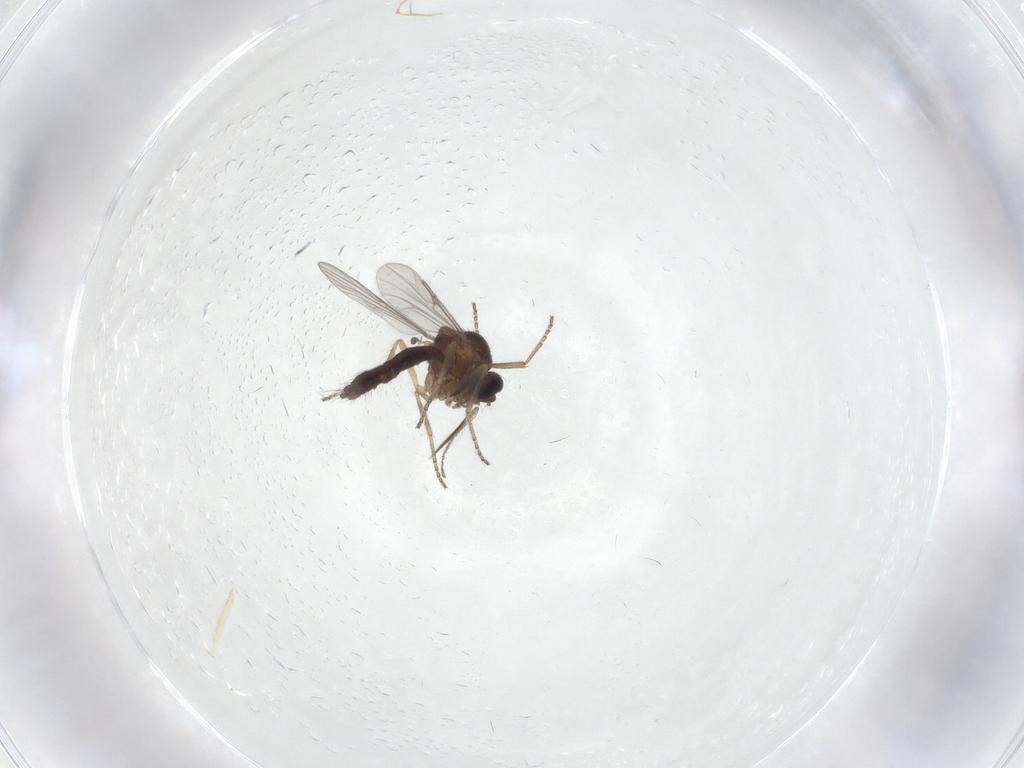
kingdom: Animalia
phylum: Arthropoda
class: Insecta
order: Diptera
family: Ceratopogonidae
